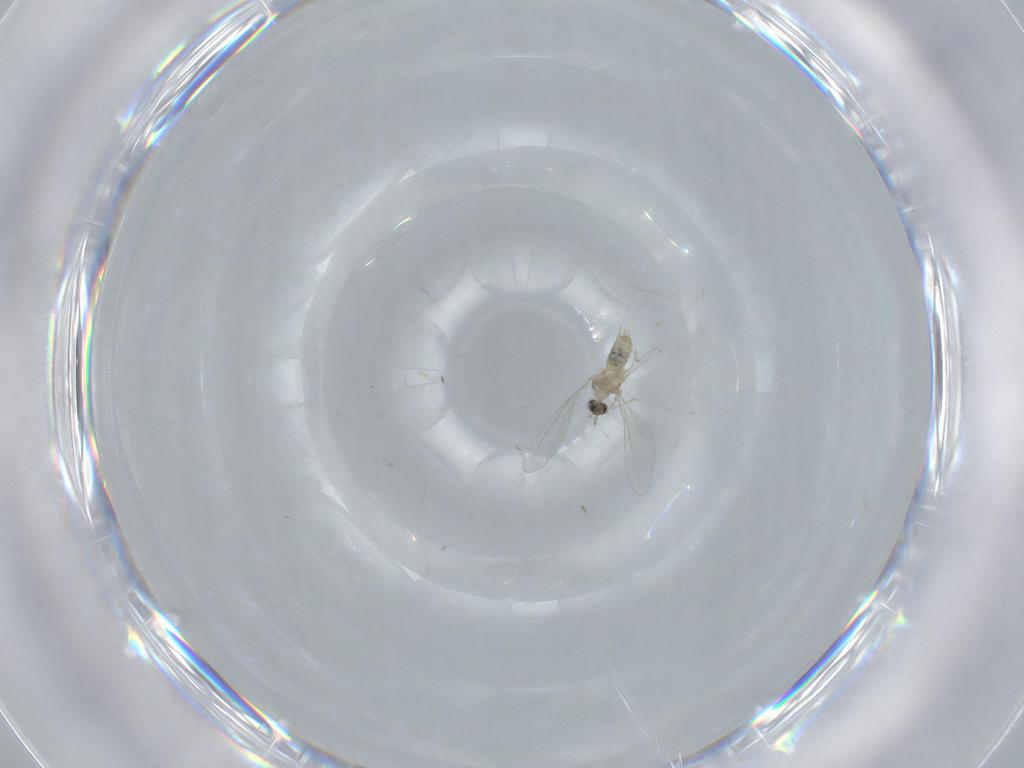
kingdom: Animalia
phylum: Arthropoda
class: Insecta
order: Diptera
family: Cecidomyiidae
